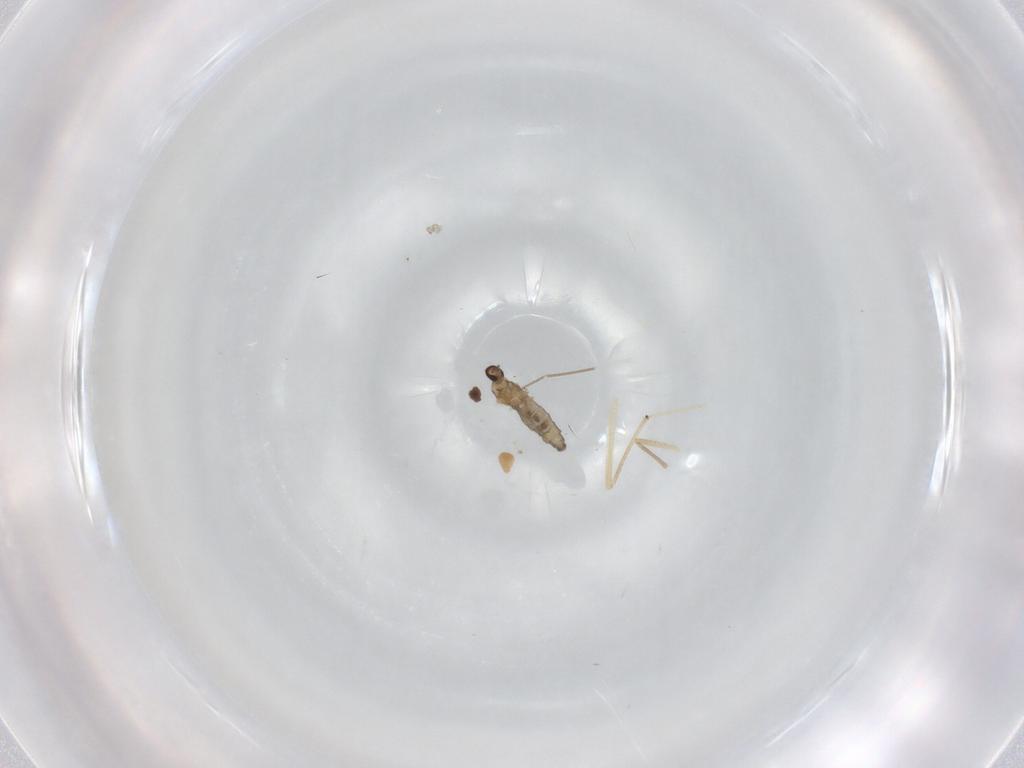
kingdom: Animalia
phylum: Arthropoda
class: Insecta
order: Diptera
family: Cecidomyiidae
